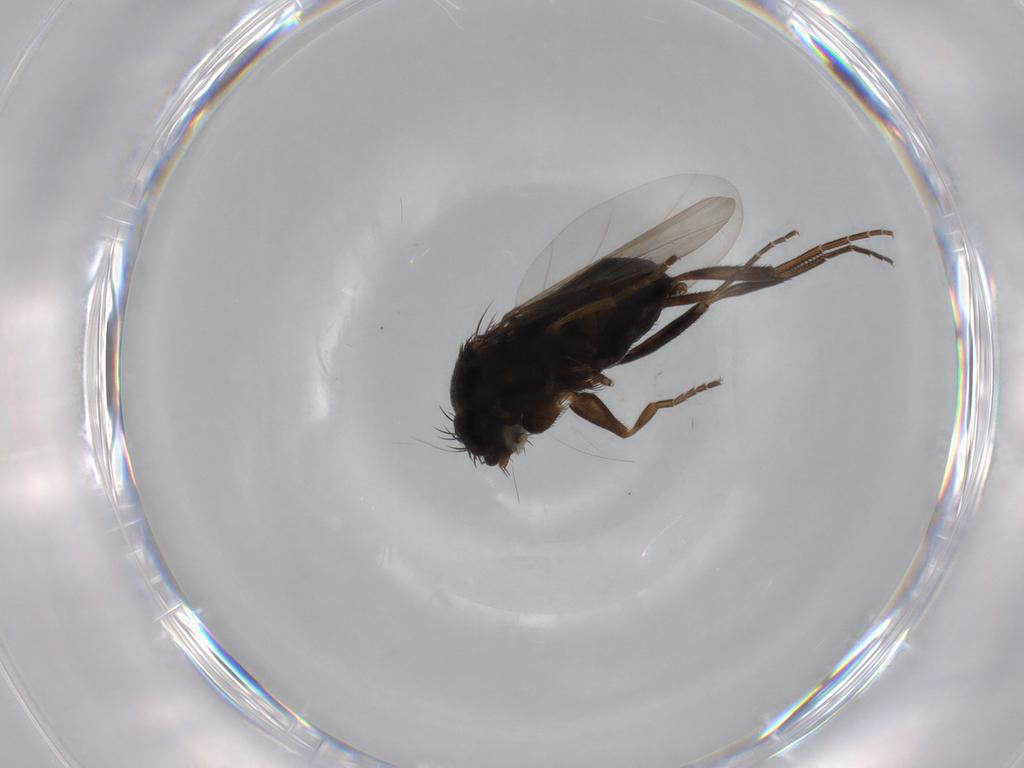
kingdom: Animalia
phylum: Arthropoda
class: Insecta
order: Diptera
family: Phoridae
